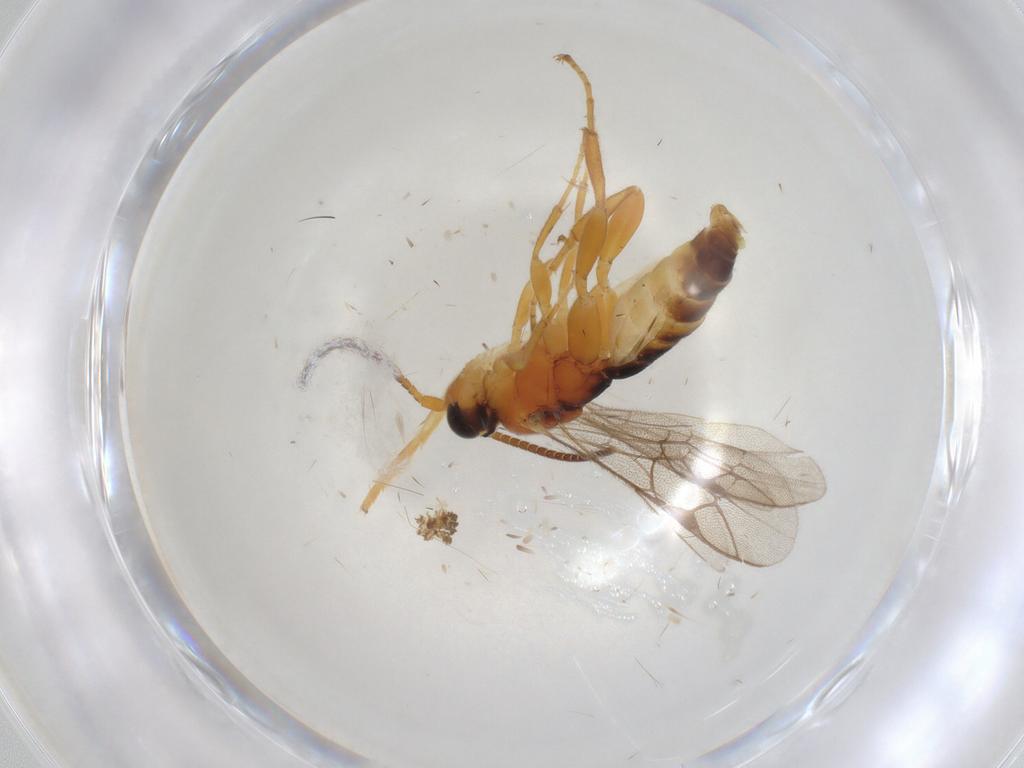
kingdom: Animalia
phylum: Arthropoda
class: Insecta
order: Hymenoptera
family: Ichneumonidae
